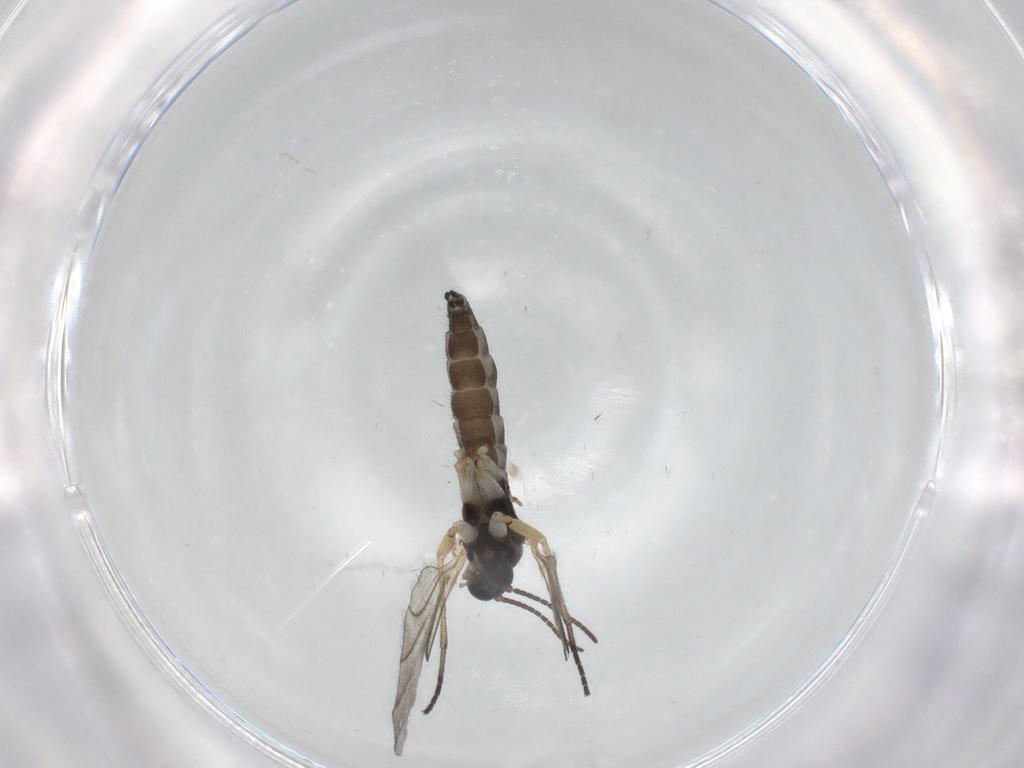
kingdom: Animalia
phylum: Arthropoda
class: Insecta
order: Diptera
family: Sciaridae
